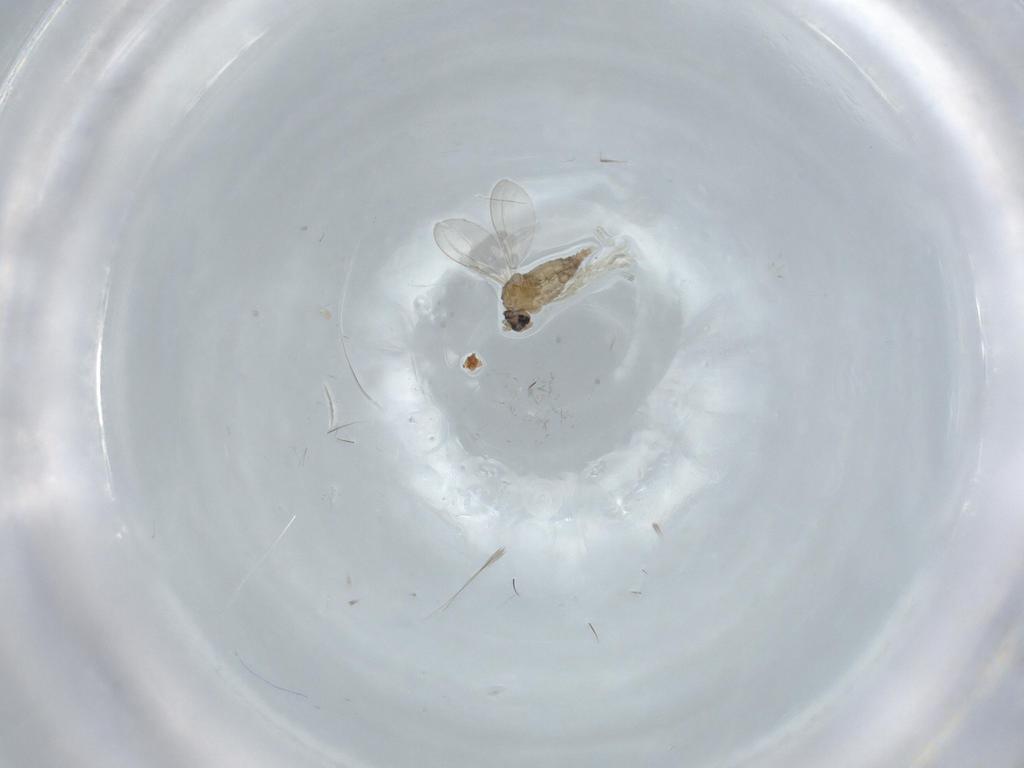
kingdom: Animalia
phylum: Arthropoda
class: Insecta
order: Diptera
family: Cecidomyiidae
